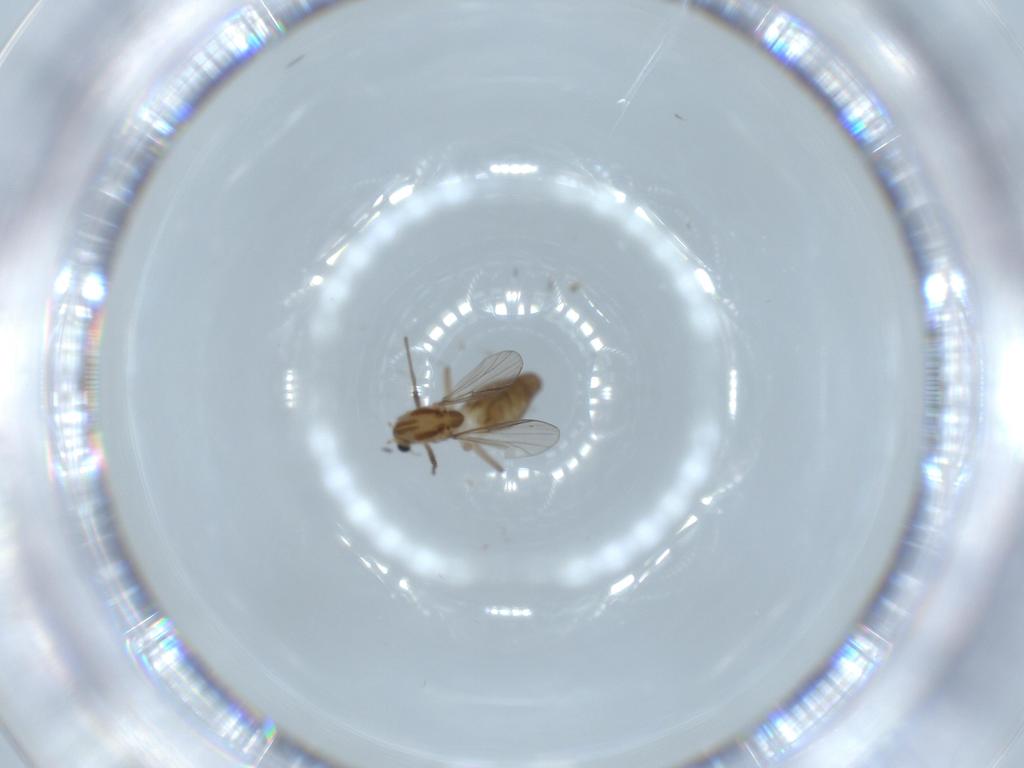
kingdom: Animalia
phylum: Arthropoda
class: Insecta
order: Diptera
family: Chironomidae
